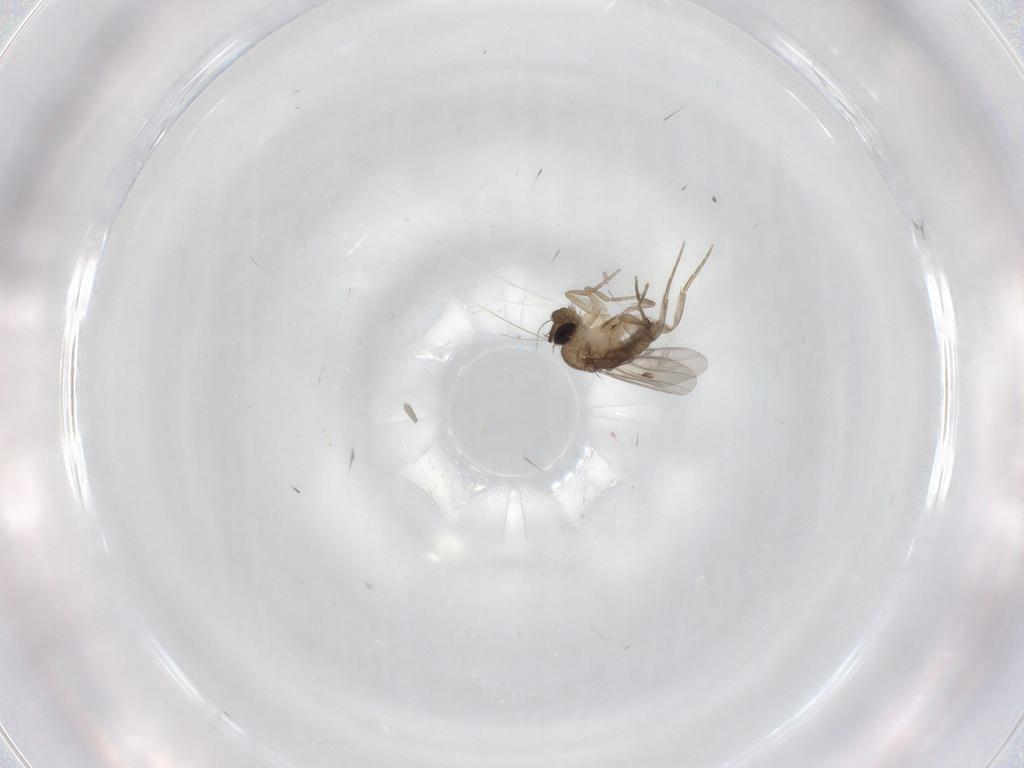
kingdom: Animalia
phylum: Arthropoda
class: Insecta
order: Diptera
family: Phoridae
